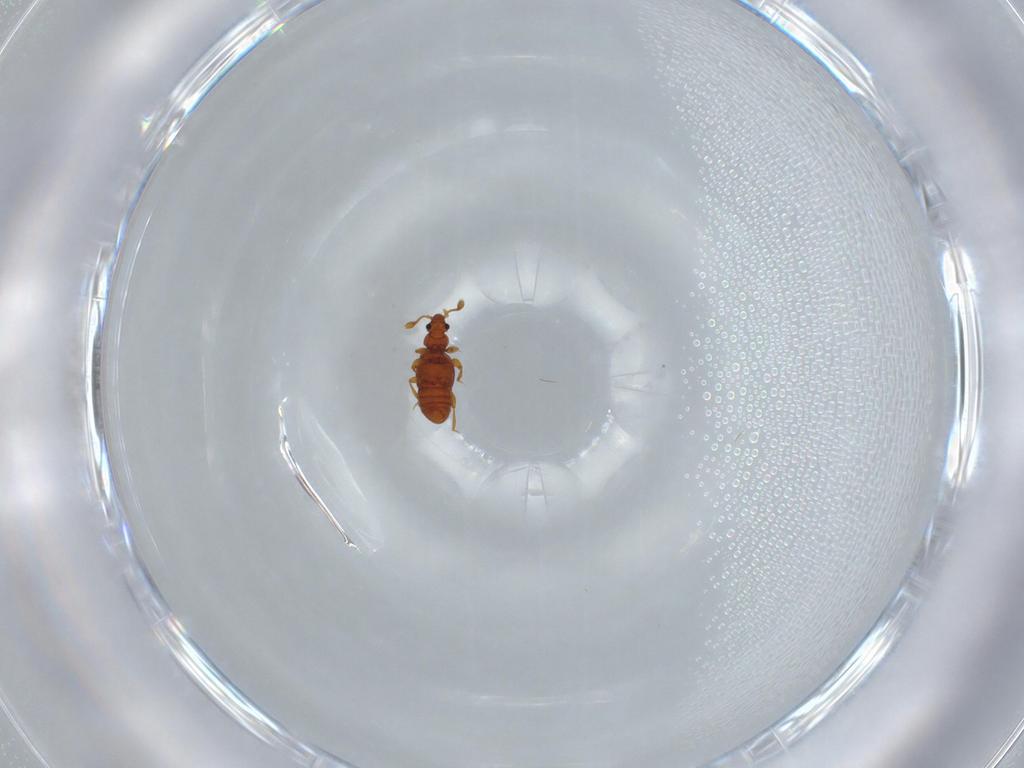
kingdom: Animalia
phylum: Arthropoda
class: Insecta
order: Coleoptera
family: Staphylinidae
